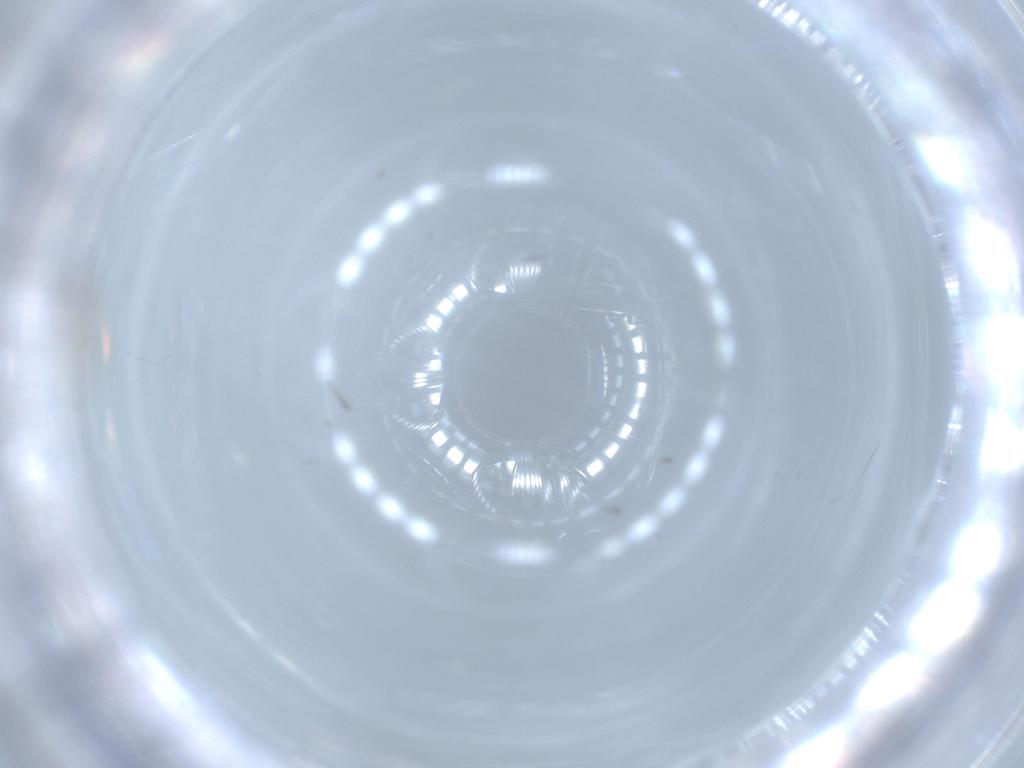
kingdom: Animalia
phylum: Arthropoda
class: Insecta
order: Diptera
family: Cecidomyiidae
